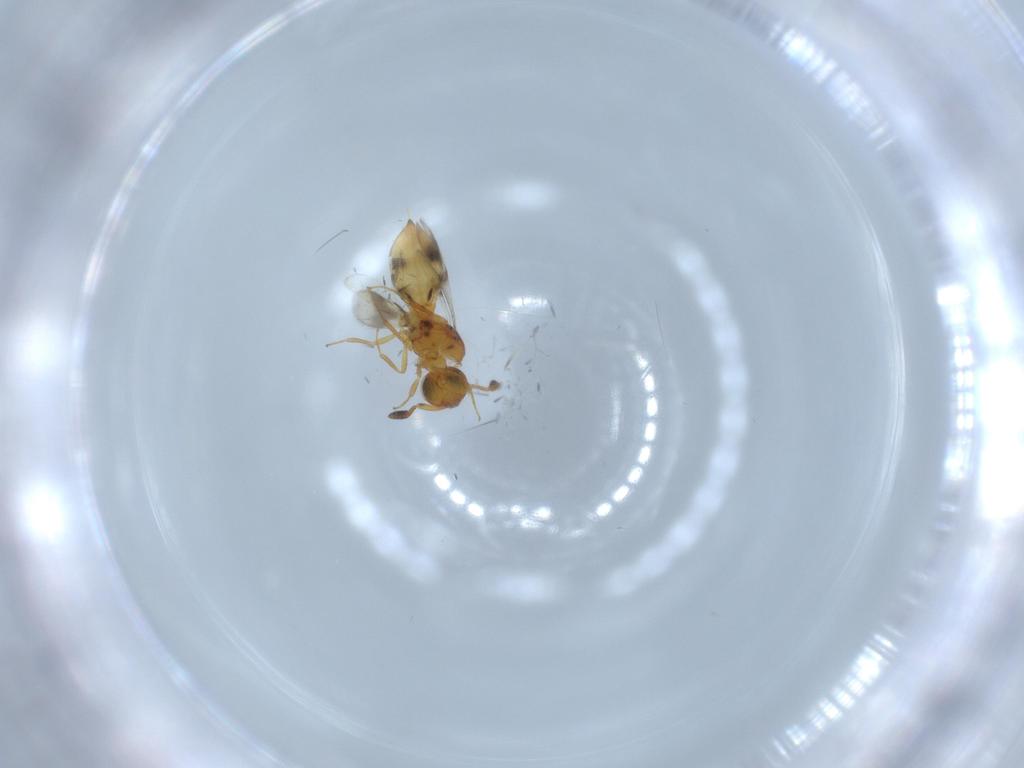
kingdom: Animalia
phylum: Arthropoda
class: Insecta
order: Hymenoptera
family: Scelionidae
